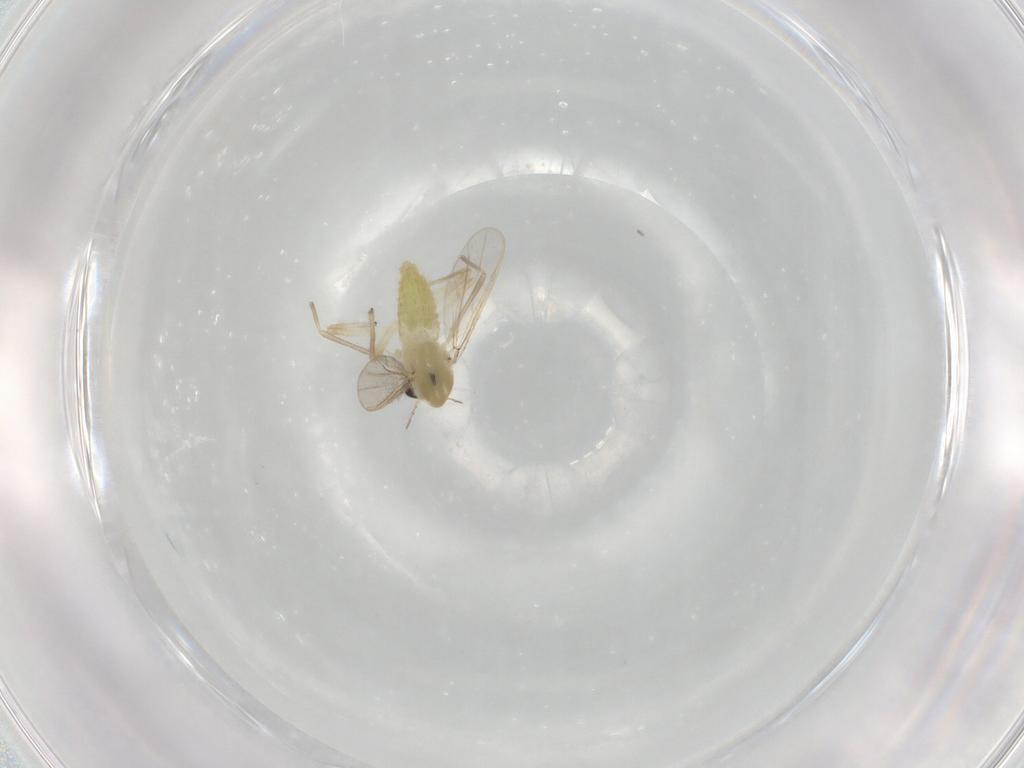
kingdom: Animalia
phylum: Arthropoda
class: Insecta
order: Diptera
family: Chironomidae
